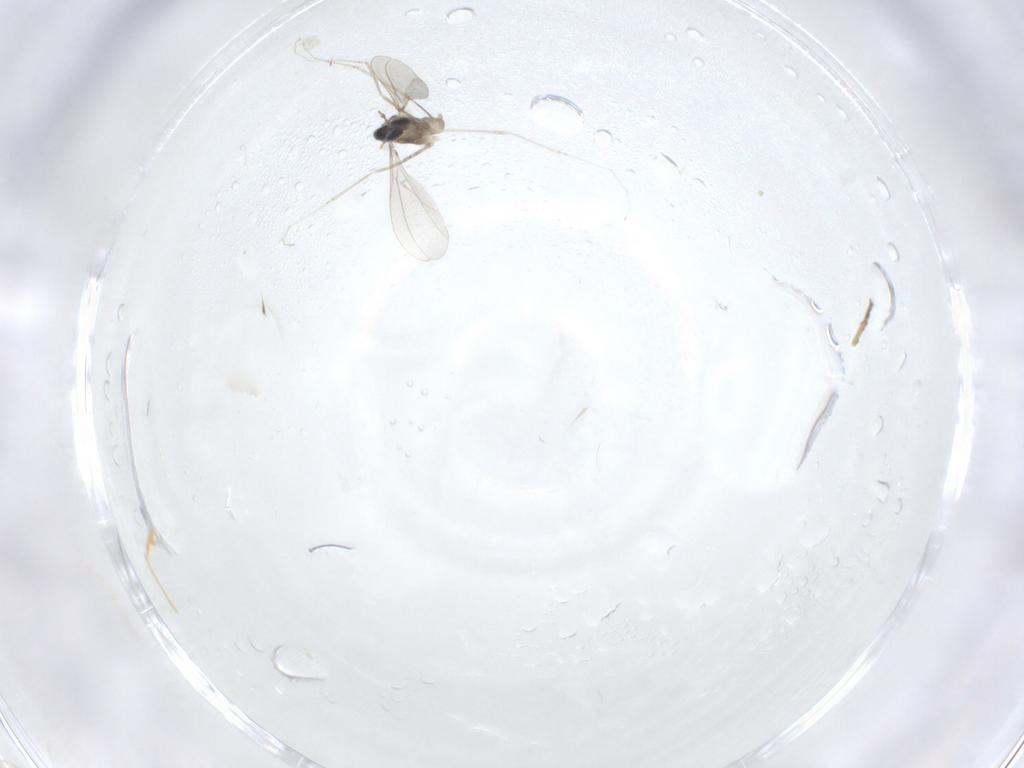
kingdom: Animalia
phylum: Arthropoda
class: Insecta
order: Diptera
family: Cecidomyiidae
